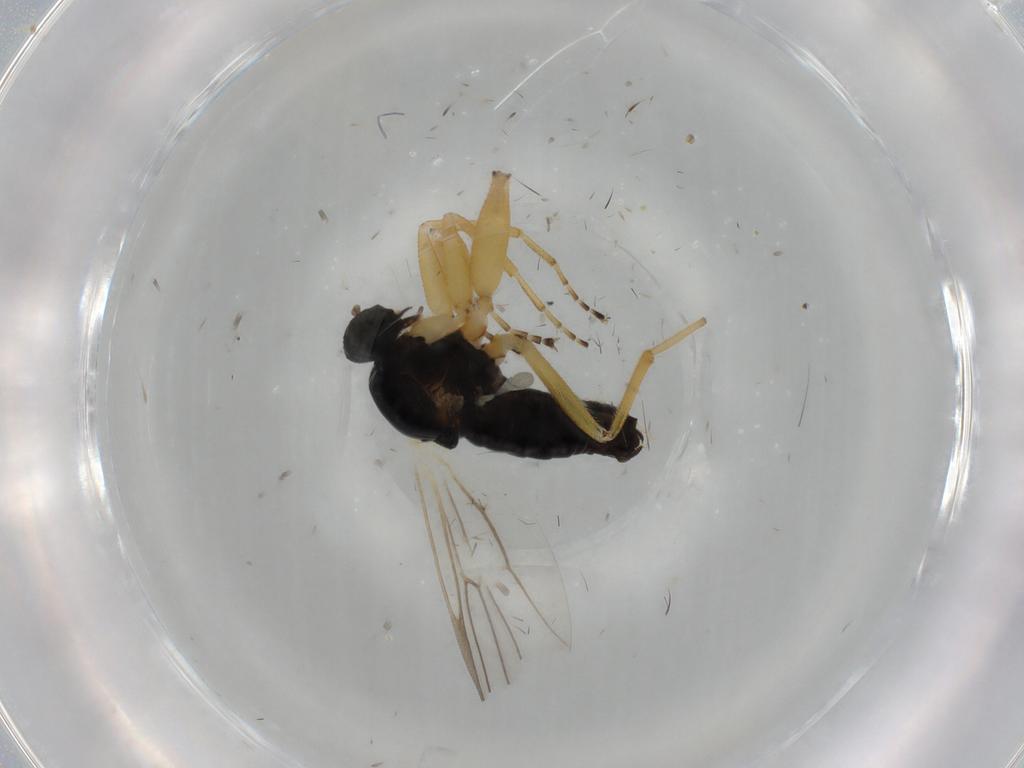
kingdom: Animalia
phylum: Arthropoda
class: Insecta
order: Diptera
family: Hybotidae
